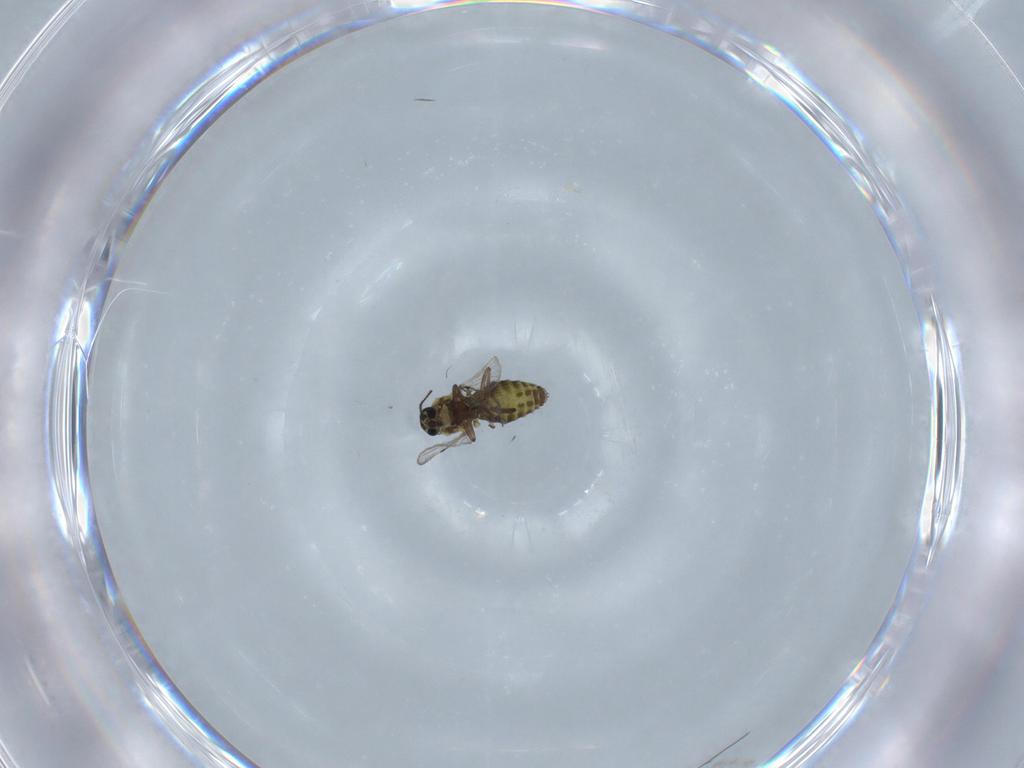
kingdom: Animalia
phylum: Arthropoda
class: Insecta
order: Diptera
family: Ceratopogonidae
